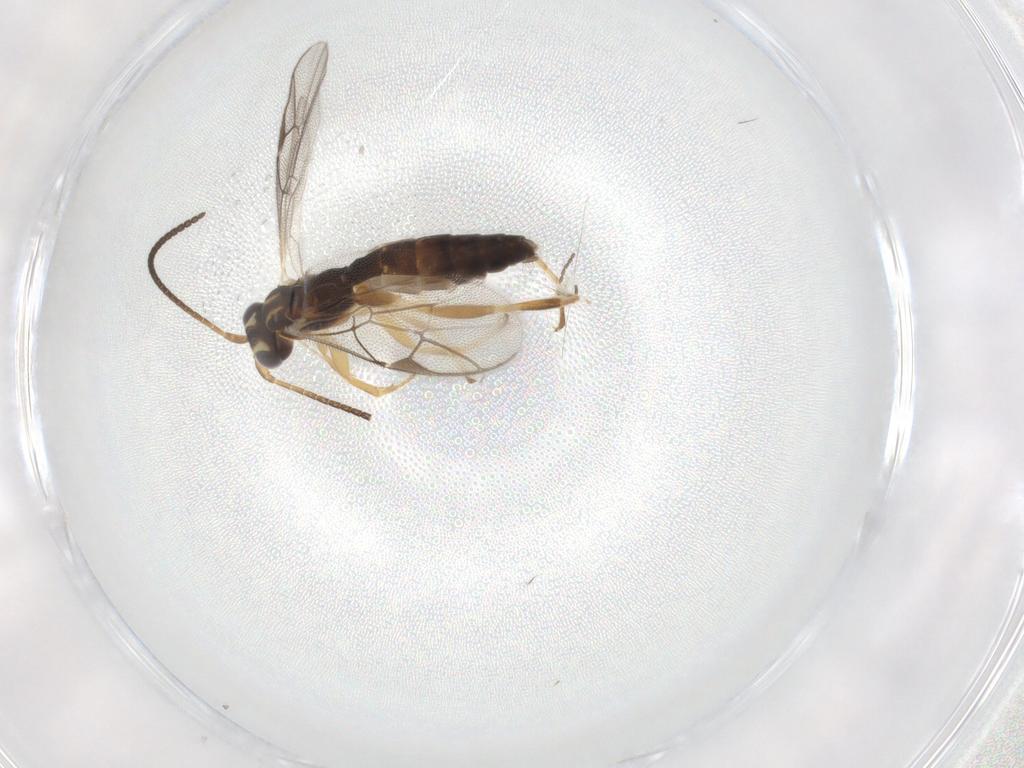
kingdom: Animalia
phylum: Arthropoda
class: Insecta
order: Hymenoptera
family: Ichneumonidae
